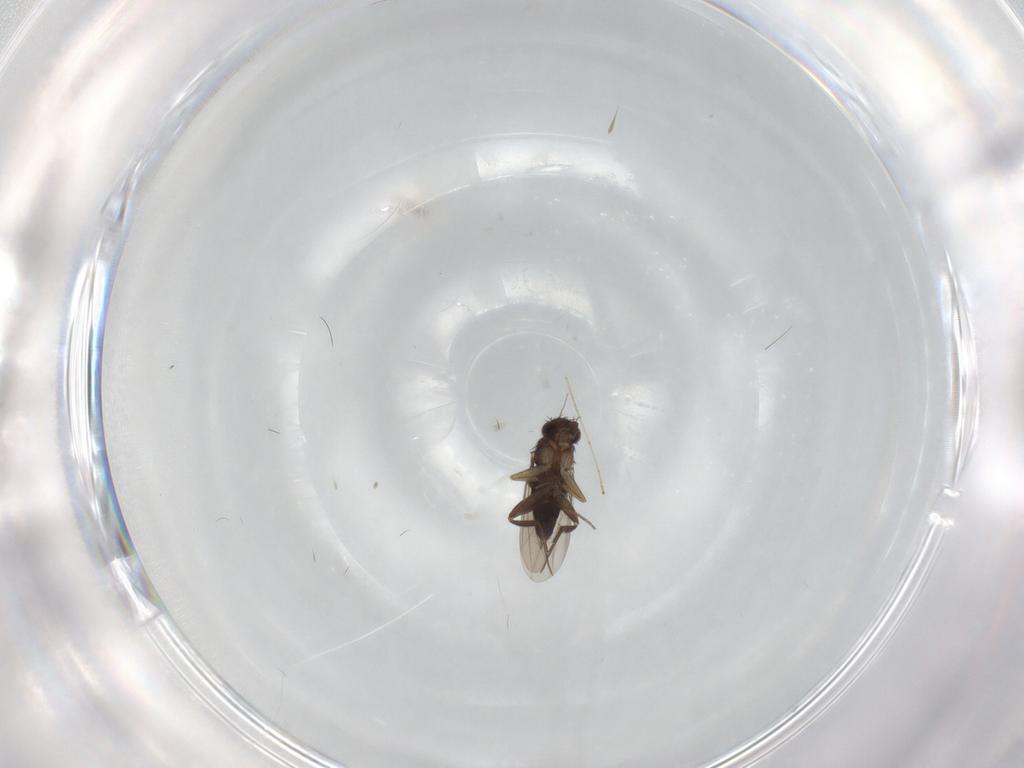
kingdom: Animalia
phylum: Arthropoda
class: Insecta
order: Diptera
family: Phoridae
